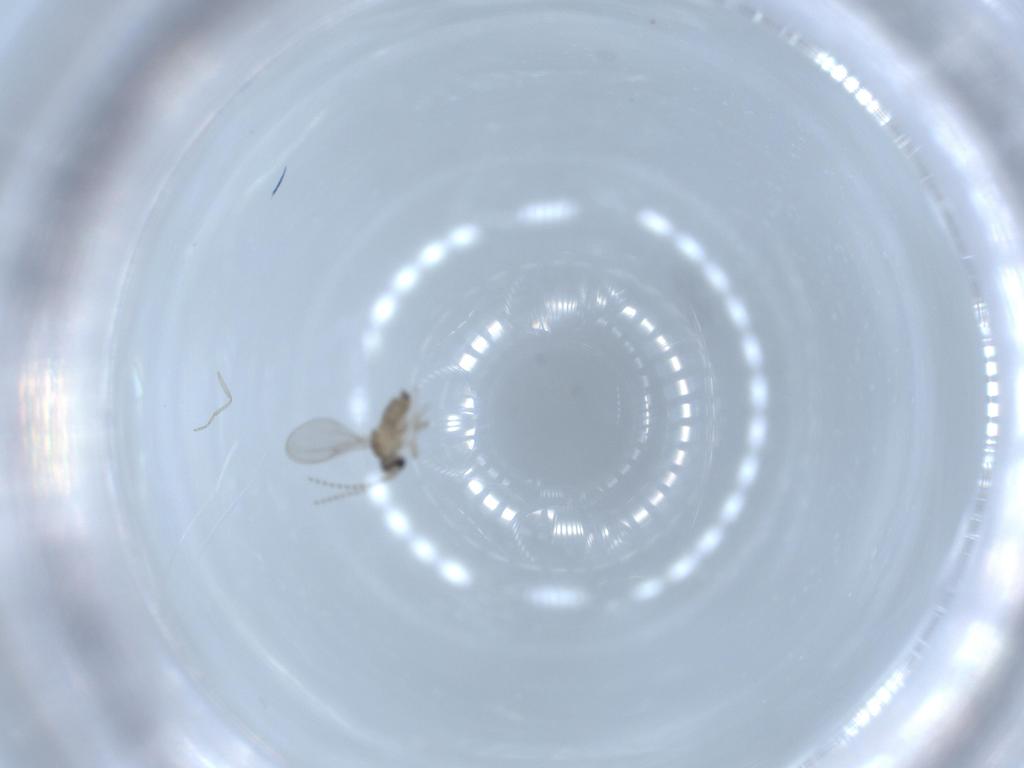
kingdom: Animalia
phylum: Arthropoda
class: Insecta
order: Diptera
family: Cecidomyiidae
